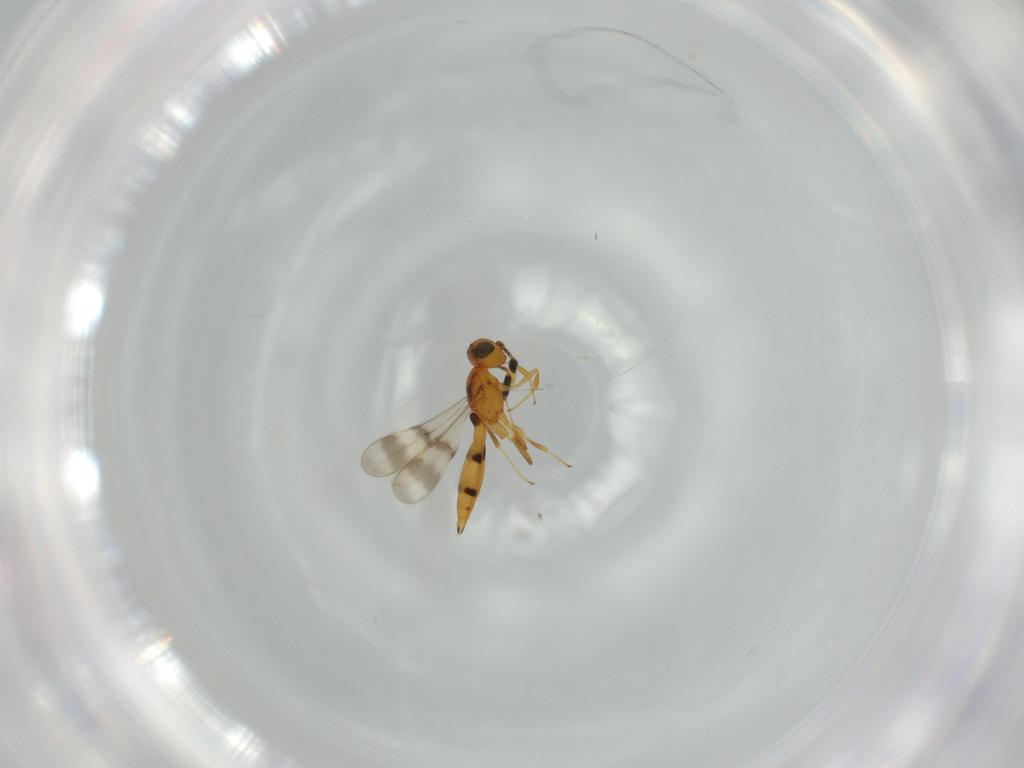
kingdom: Animalia
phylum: Arthropoda
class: Insecta
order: Hymenoptera
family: Scelionidae
